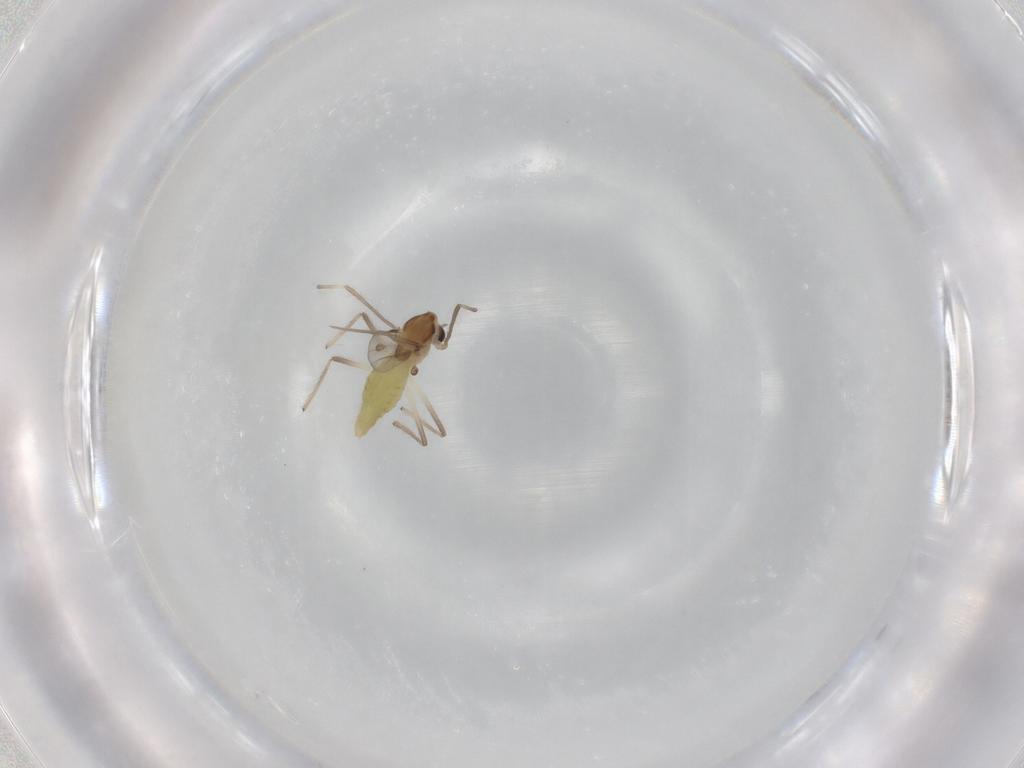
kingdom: Animalia
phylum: Arthropoda
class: Insecta
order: Diptera
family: Chironomidae
